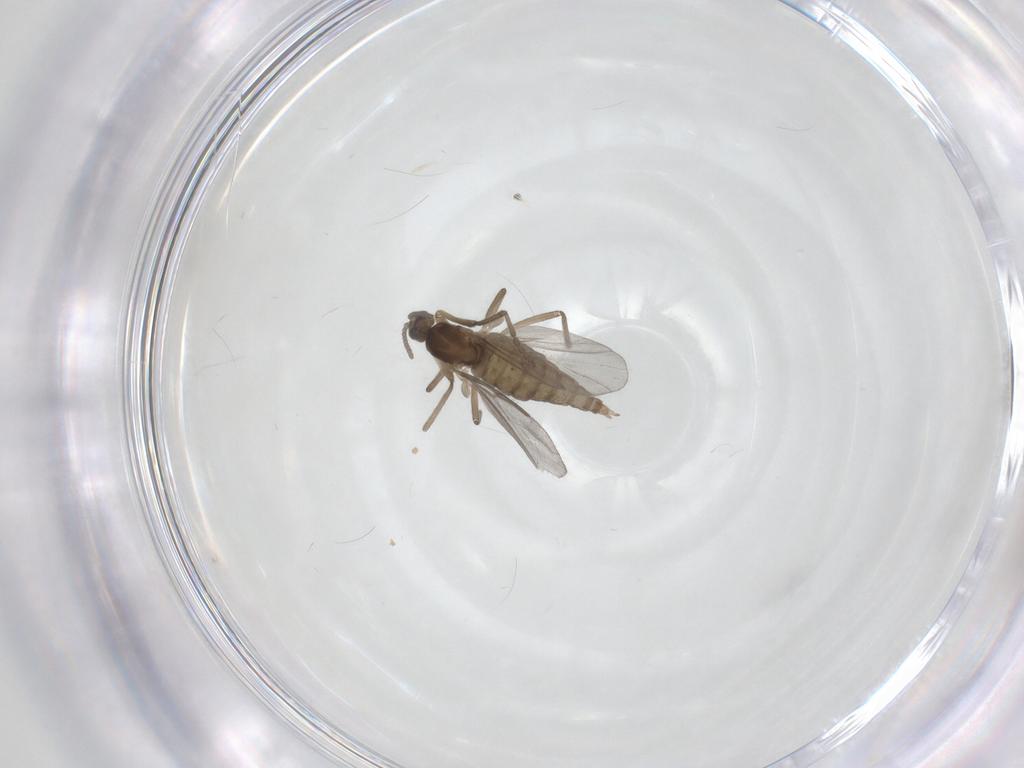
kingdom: Animalia
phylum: Arthropoda
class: Insecta
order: Diptera
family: Cecidomyiidae
